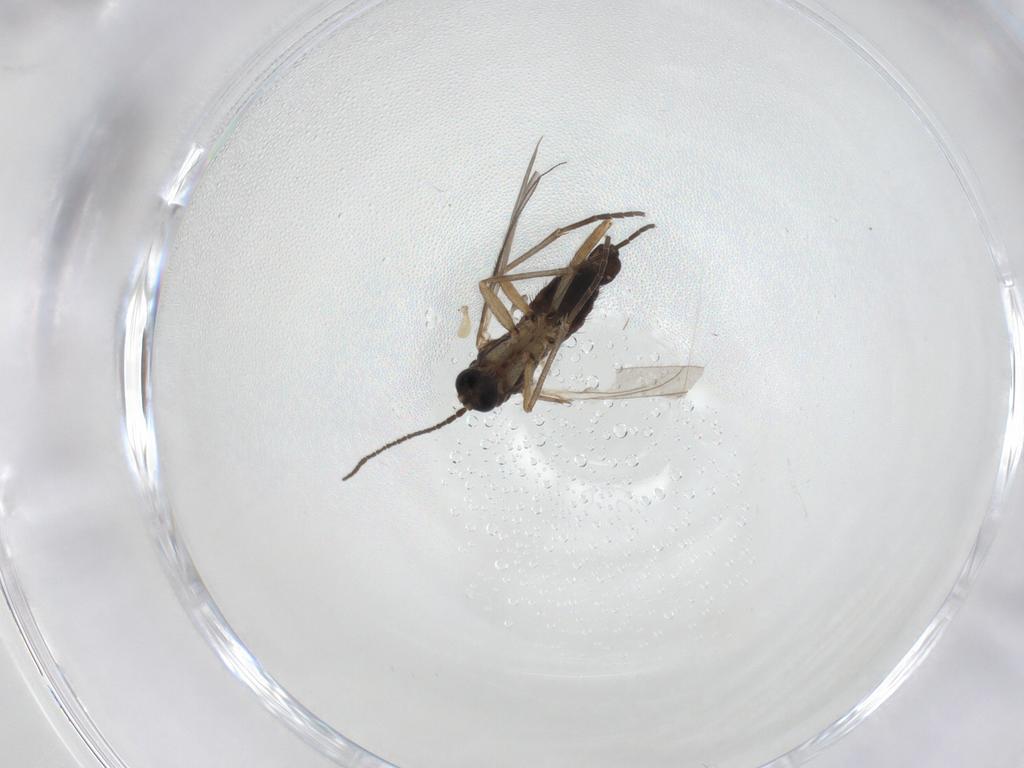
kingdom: Animalia
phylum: Arthropoda
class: Insecta
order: Diptera
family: Sciaridae
